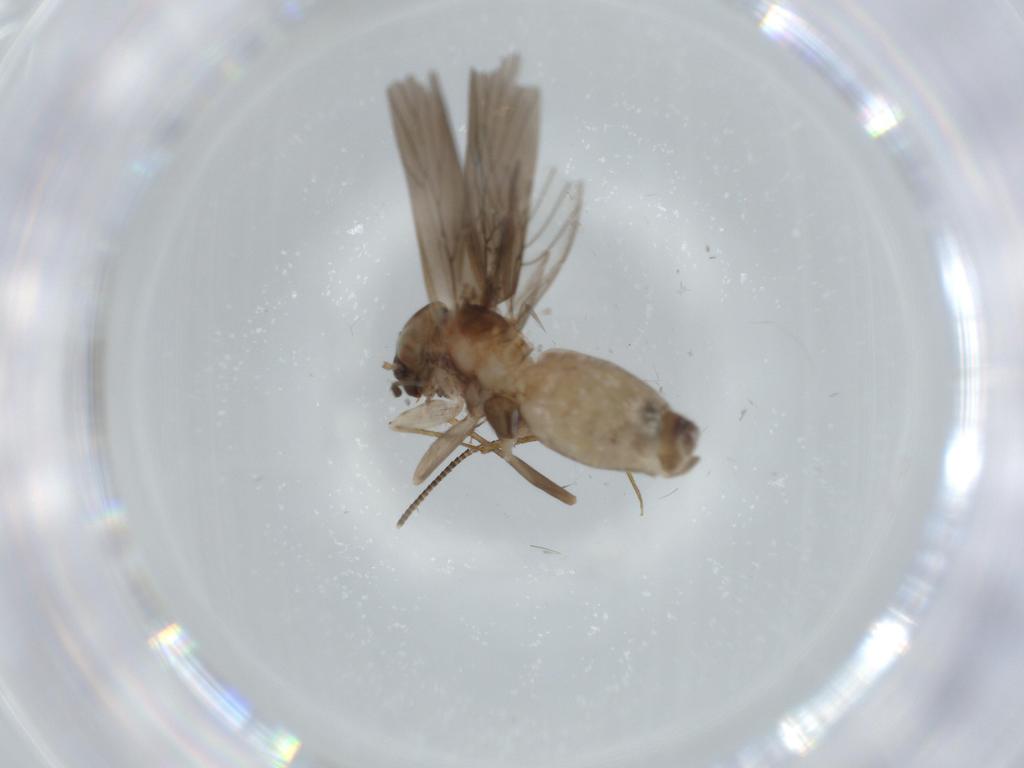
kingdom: Animalia
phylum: Arthropoda
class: Insecta
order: Psocodea
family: Lepidopsocidae
